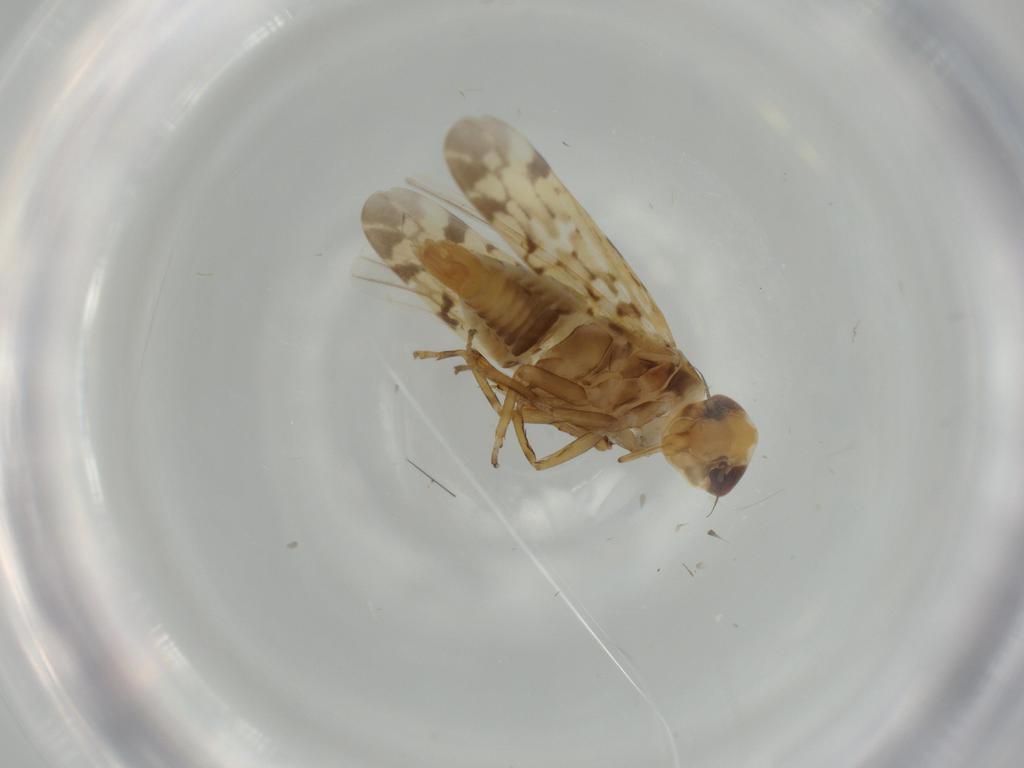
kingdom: Animalia
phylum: Arthropoda
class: Insecta
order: Hemiptera
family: Cicadellidae
